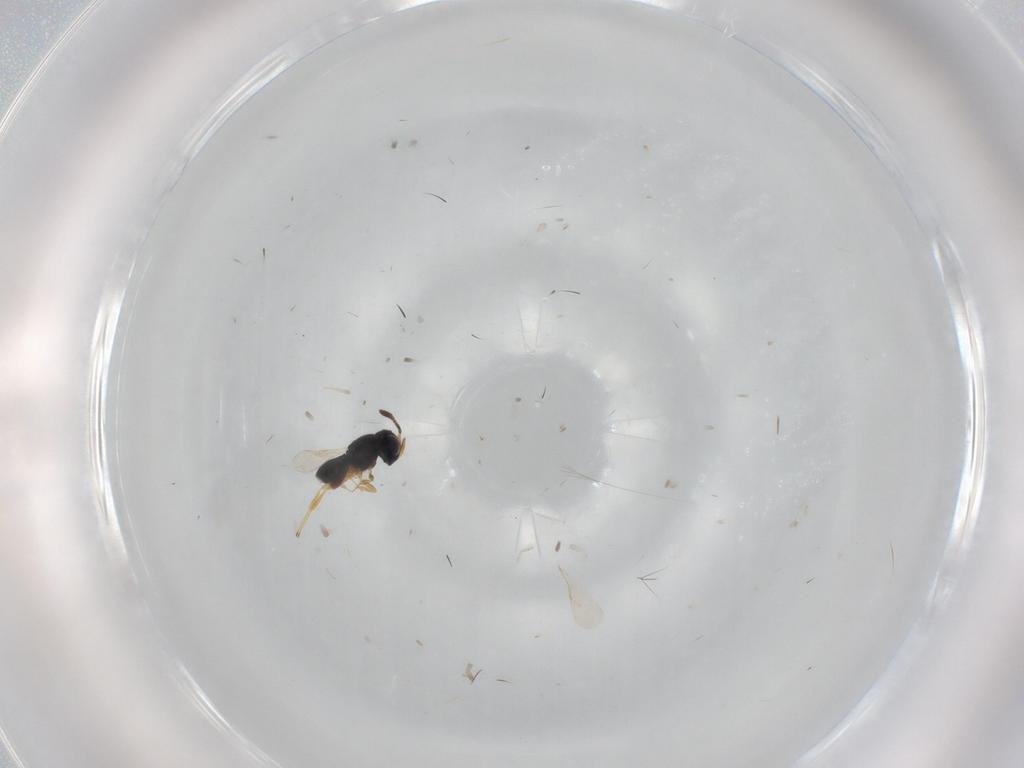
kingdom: Animalia
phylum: Arthropoda
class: Insecta
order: Hymenoptera
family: Scelionidae
